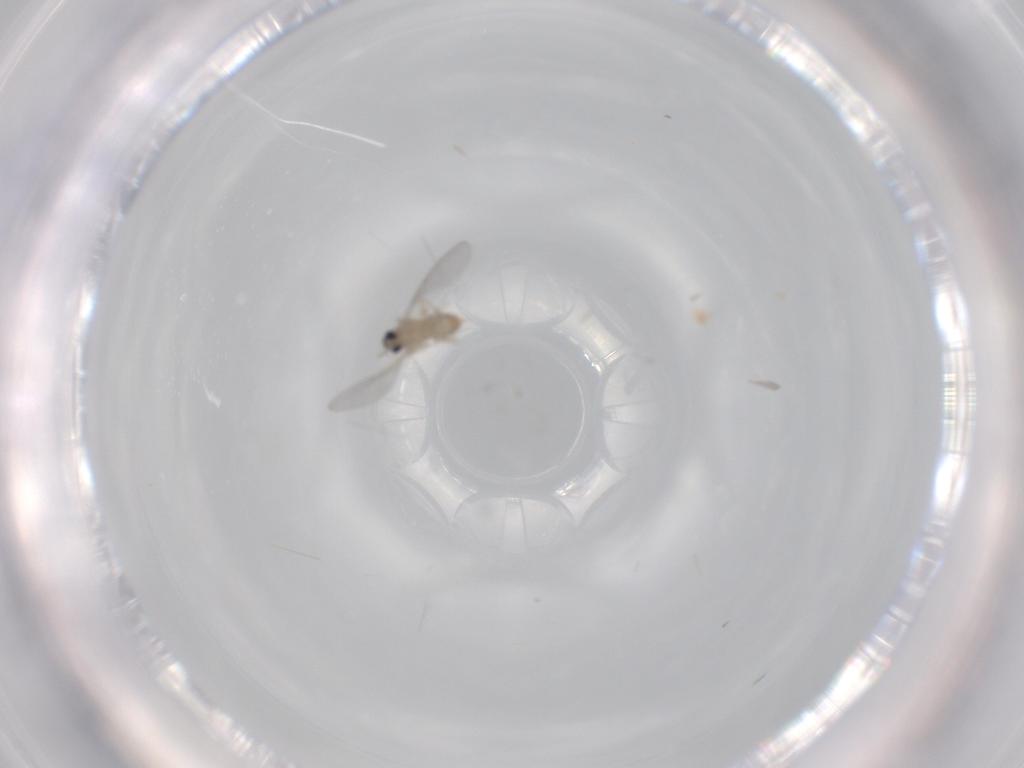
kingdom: Animalia
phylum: Arthropoda
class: Insecta
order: Diptera
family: Cecidomyiidae
